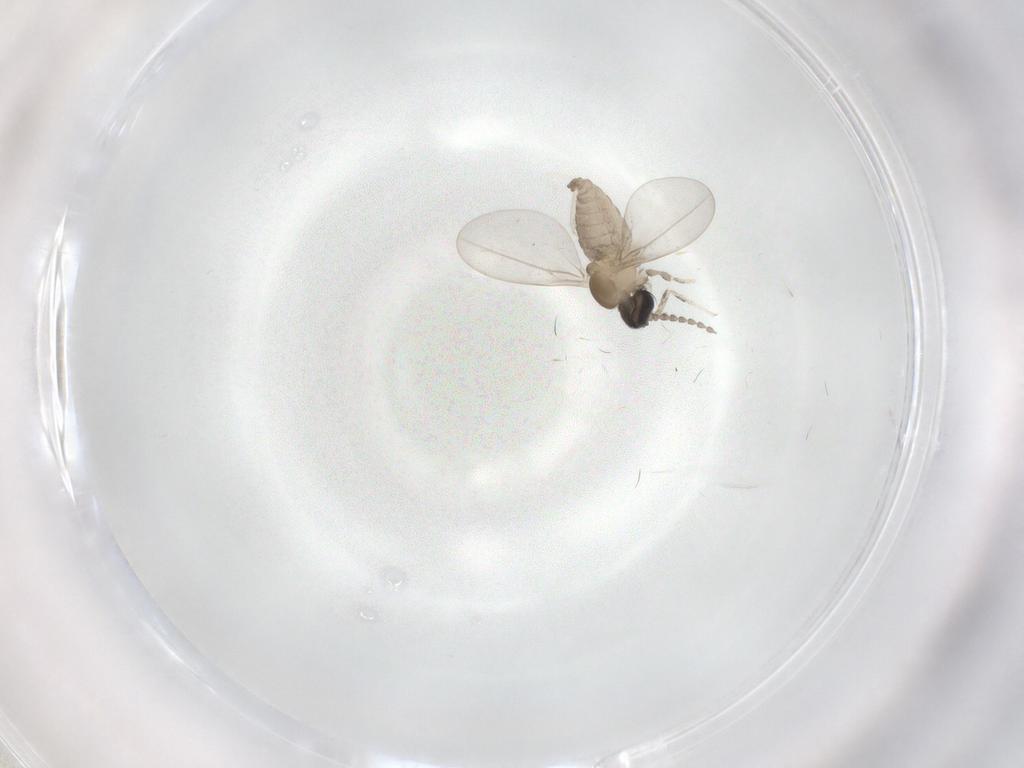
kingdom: Animalia
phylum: Arthropoda
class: Insecta
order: Diptera
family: Cecidomyiidae
